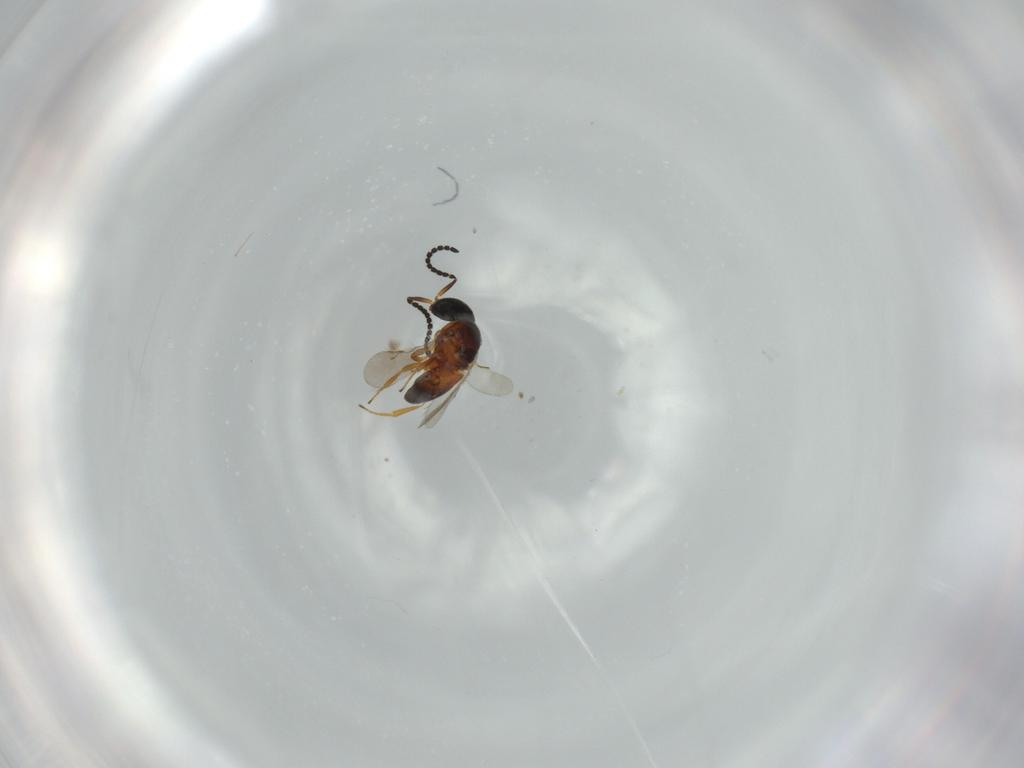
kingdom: Animalia
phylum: Arthropoda
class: Insecta
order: Hymenoptera
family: Scelionidae
